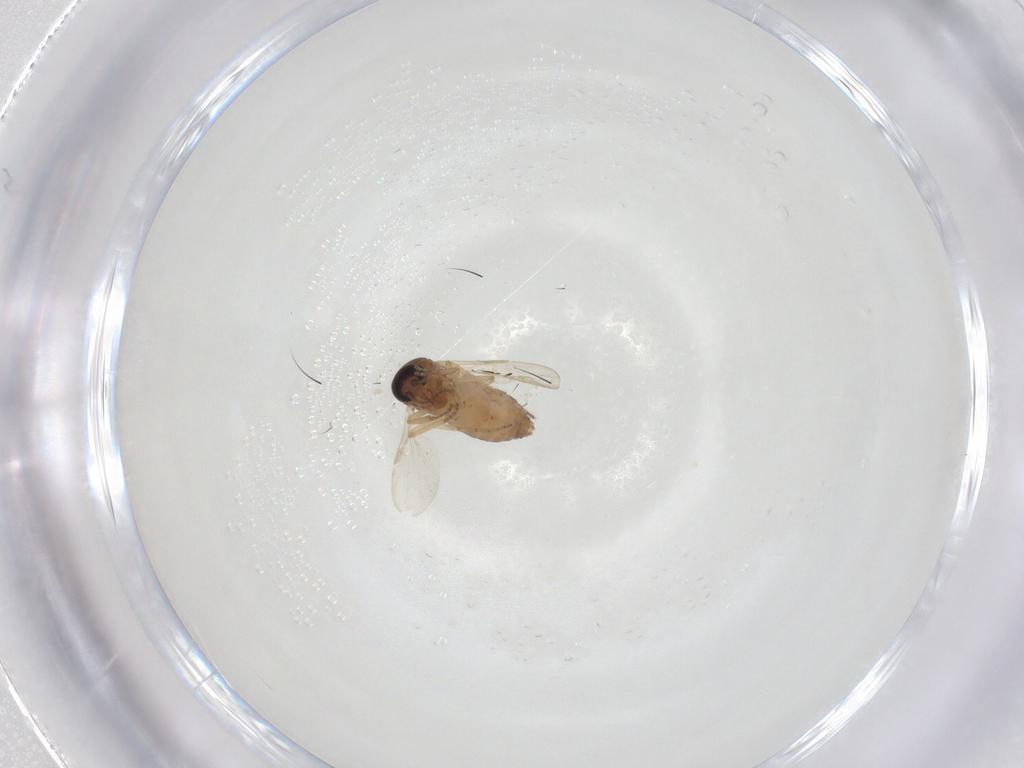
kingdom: Animalia
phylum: Arthropoda
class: Insecta
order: Diptera
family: Ceratopogonidae
